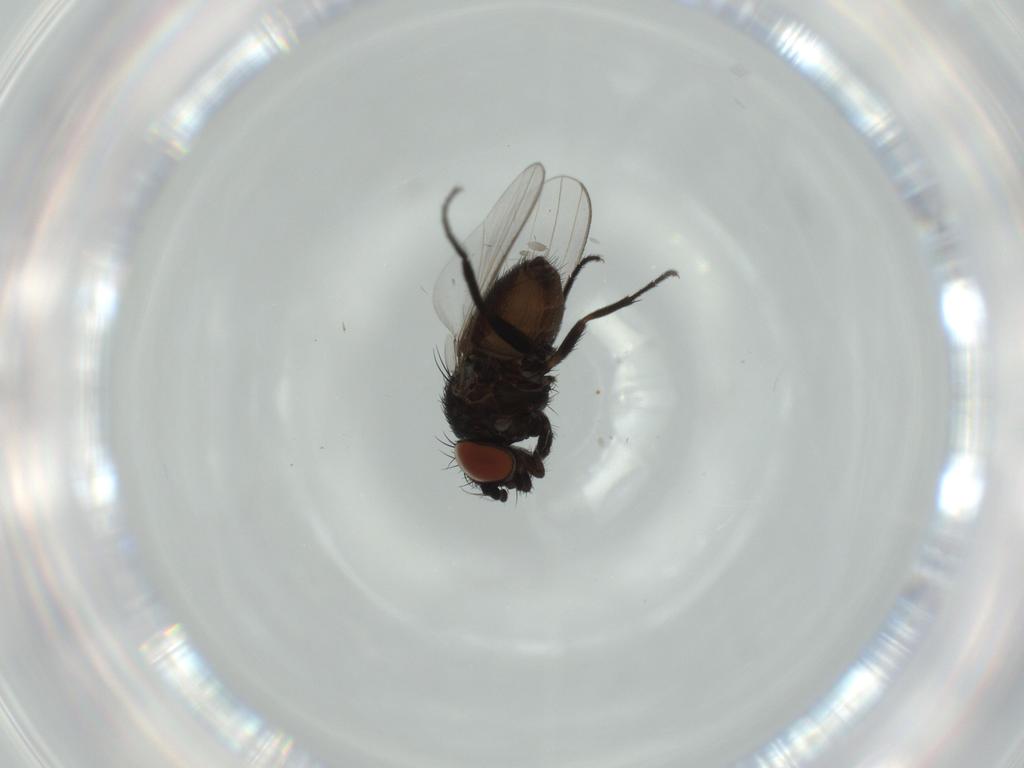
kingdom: Animalia
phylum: Arthropoda
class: Insecta
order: Diptera
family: Milichiidae
